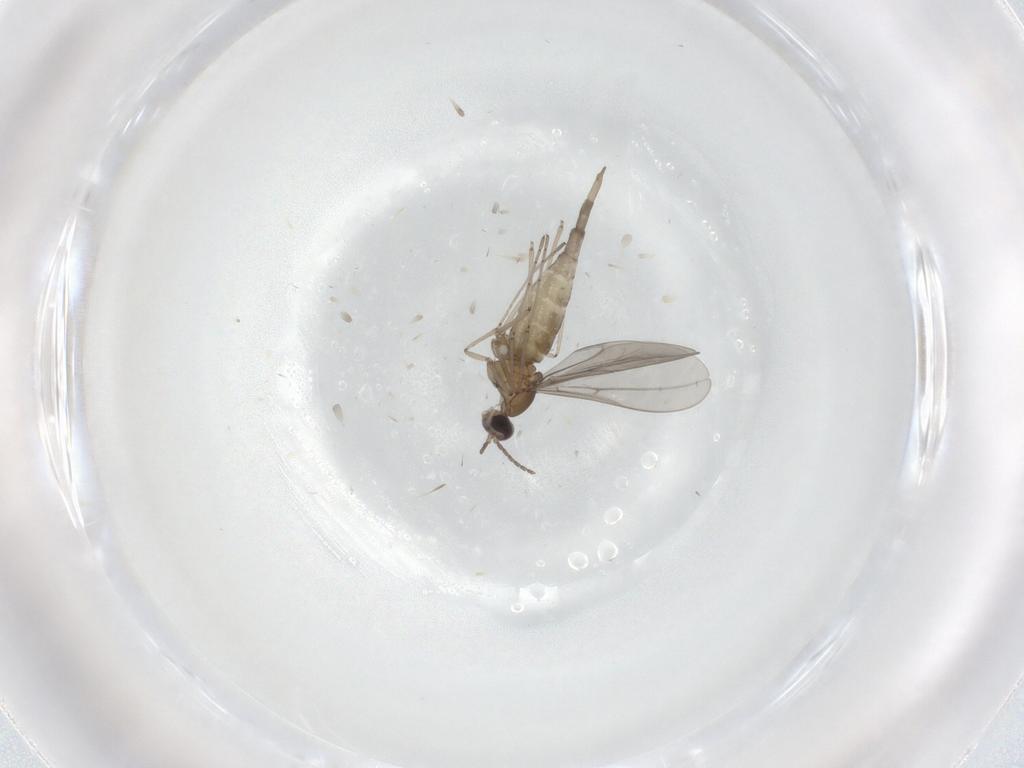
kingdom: Animalia
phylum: Arthropoda
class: Insecta
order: Diptera
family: Cecidomyiidae
